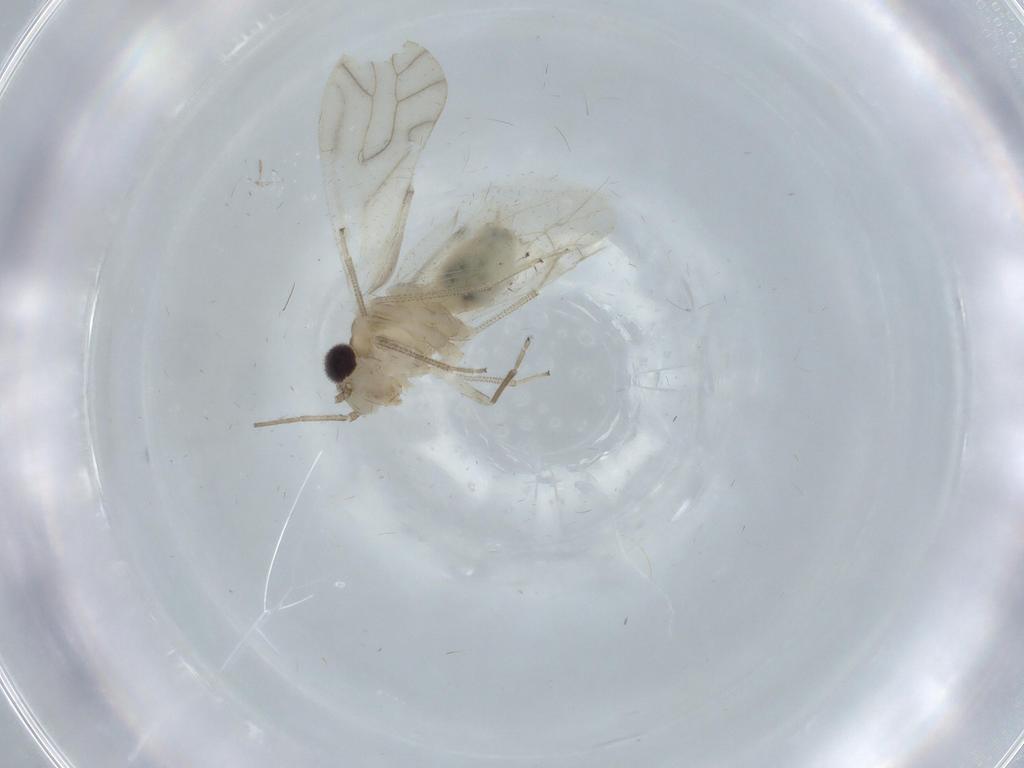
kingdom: Animalia
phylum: Arthropoda
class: Insecta
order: Psocodea
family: Caeciliusidae
